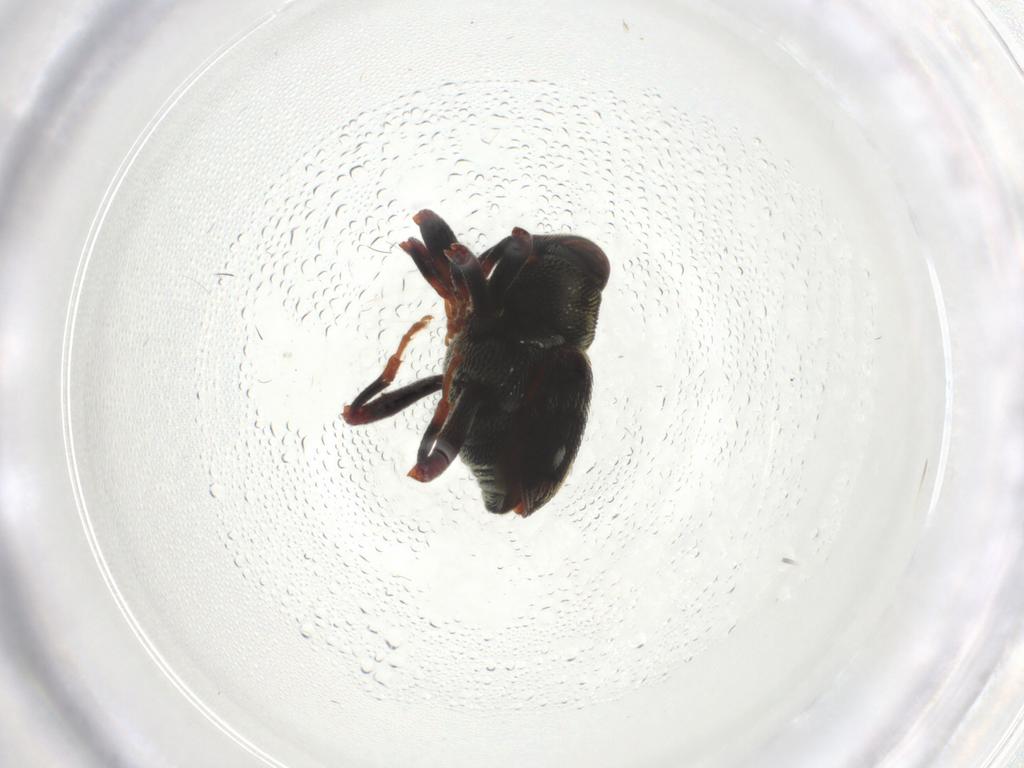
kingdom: Animalia
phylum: Arthropoda
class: Insecta
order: Coleoptera
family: Curculionidae
